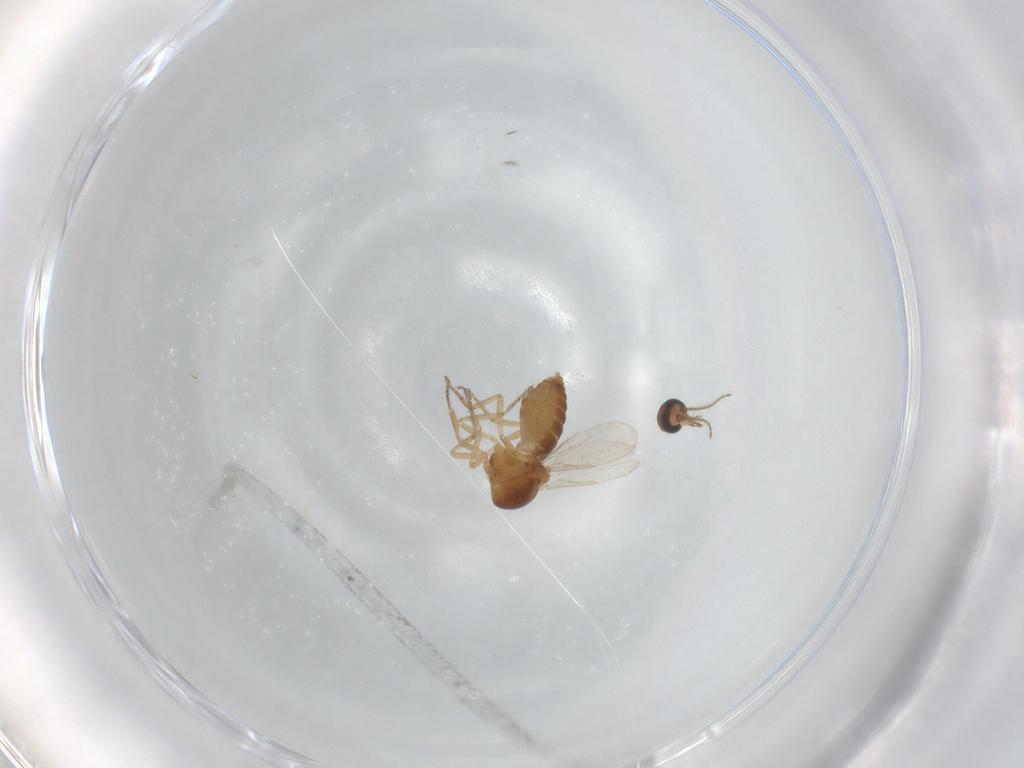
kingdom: Animalia
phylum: Arthropoda
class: Insecta
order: Diptera
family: Ceratopogonidae
